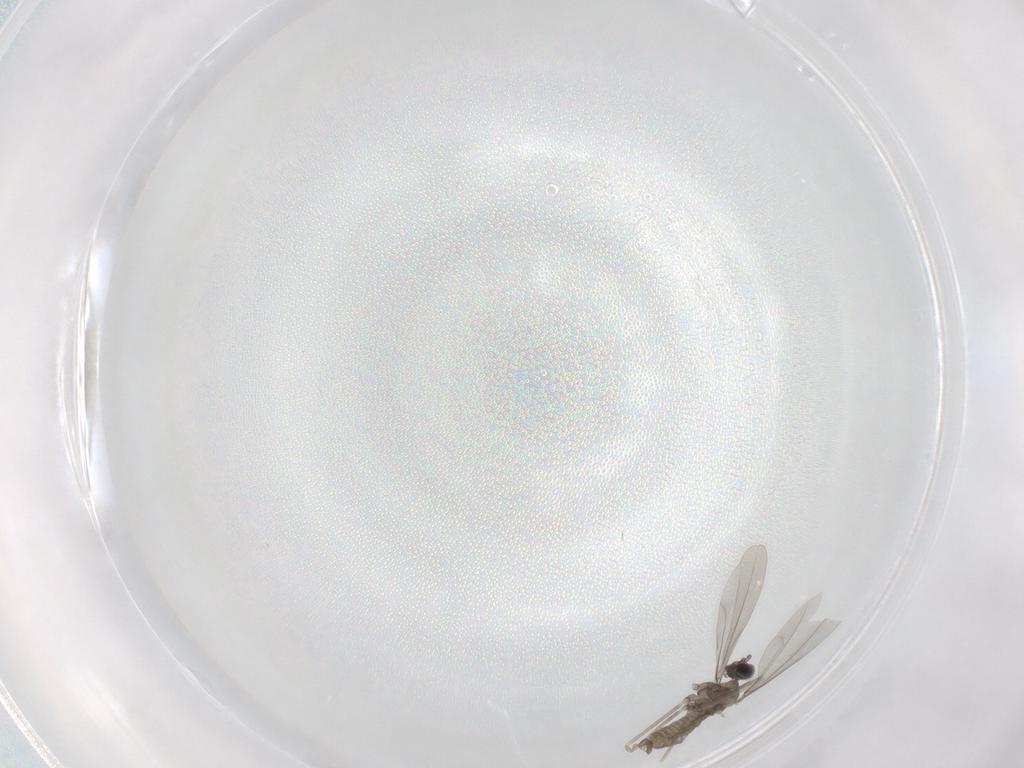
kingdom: Animalia
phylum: Arthropoda
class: Insecta
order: Diptera
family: Cecidomyiidae
